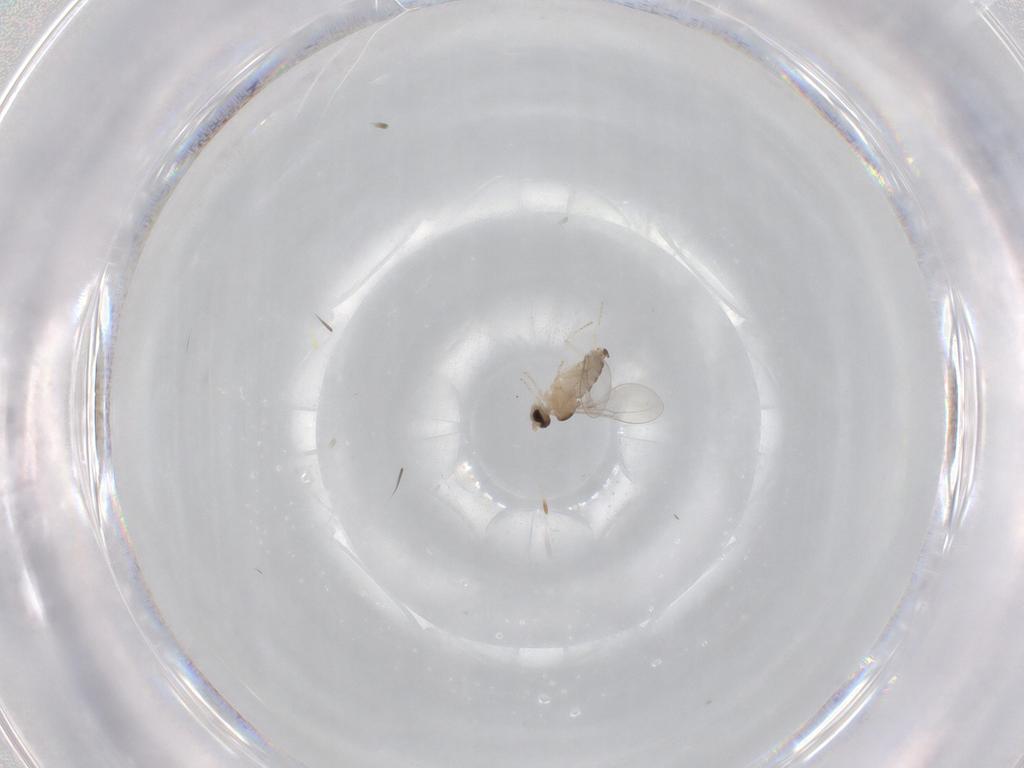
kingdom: Animalia
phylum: Arthropoda
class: Insecta
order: Diptera
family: Cecidomyiidae
